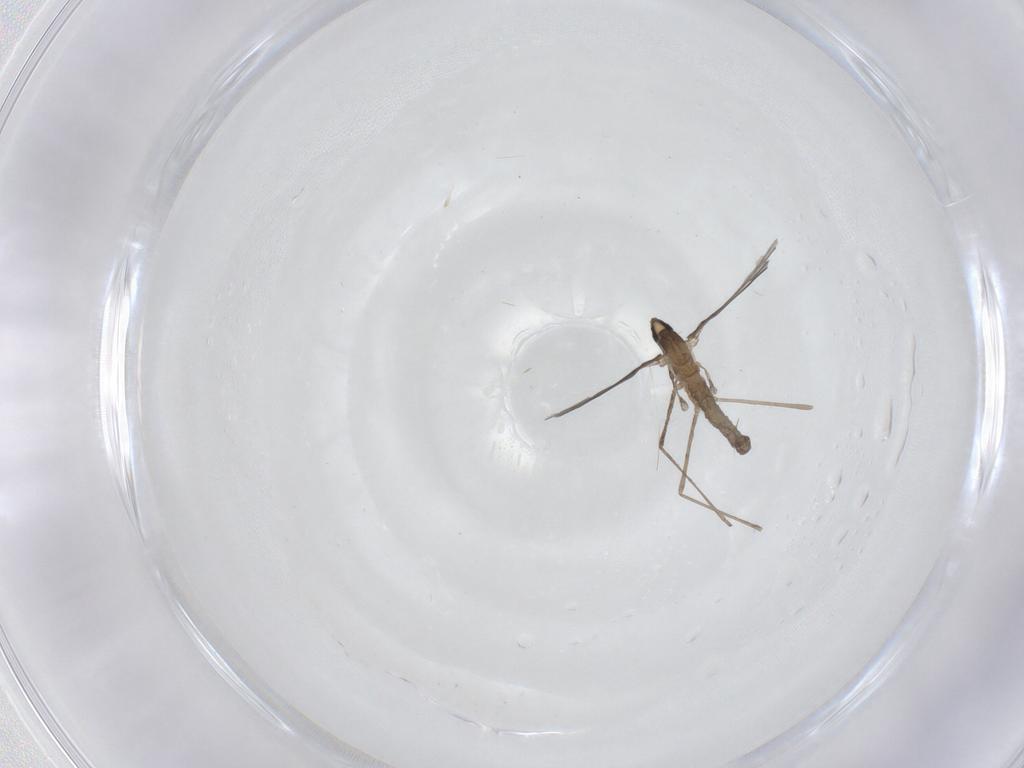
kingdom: Animalia
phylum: Arthropoda
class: Insecta
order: Diptera
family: Cecidomyiidae
